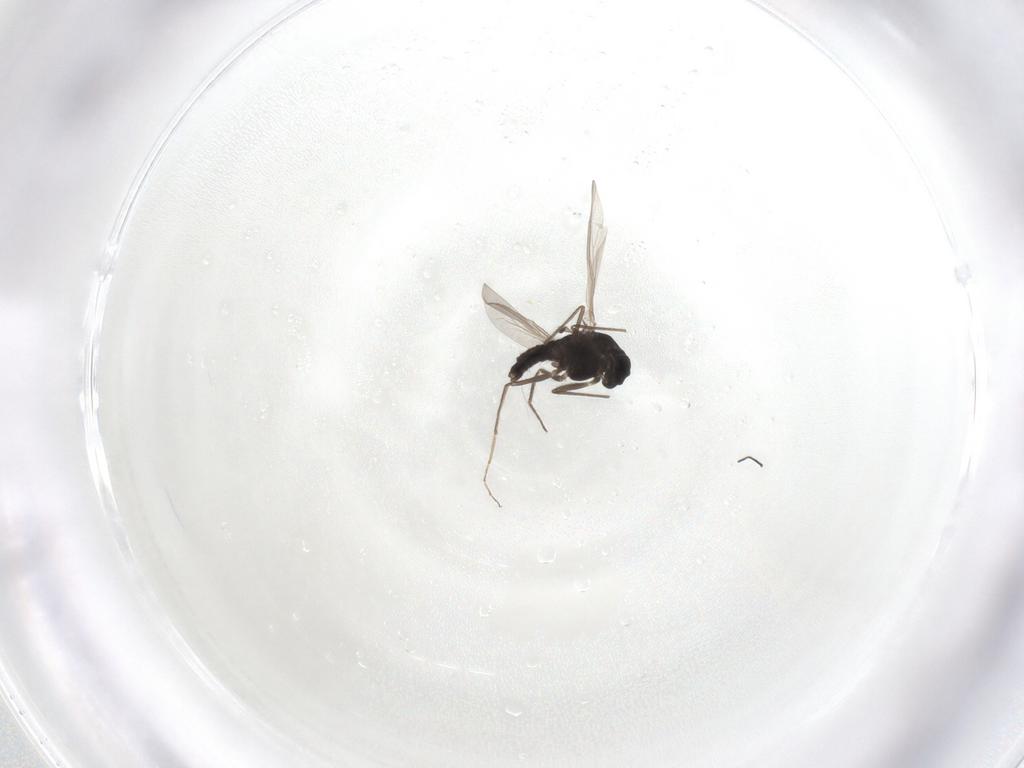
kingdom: Animalia
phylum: Arthropoda
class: Insecta
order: Diptera
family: Chironomidae
